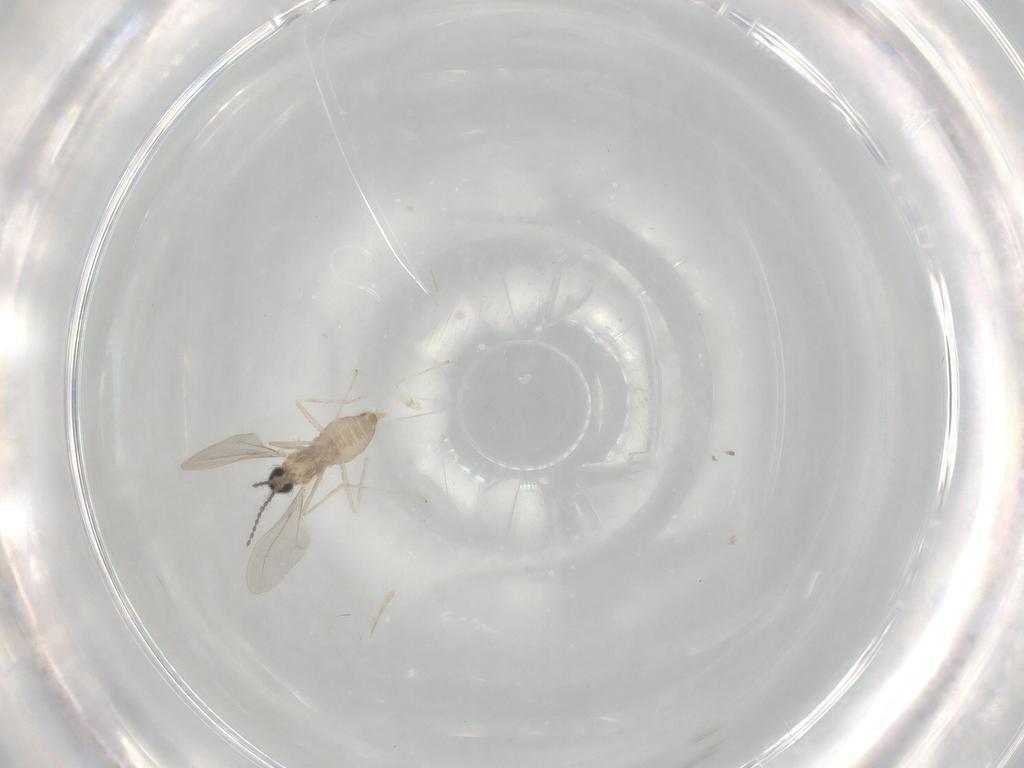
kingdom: Animalia
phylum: Arthropoda
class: Insecta
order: Diptera
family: Cecidomyiidae
